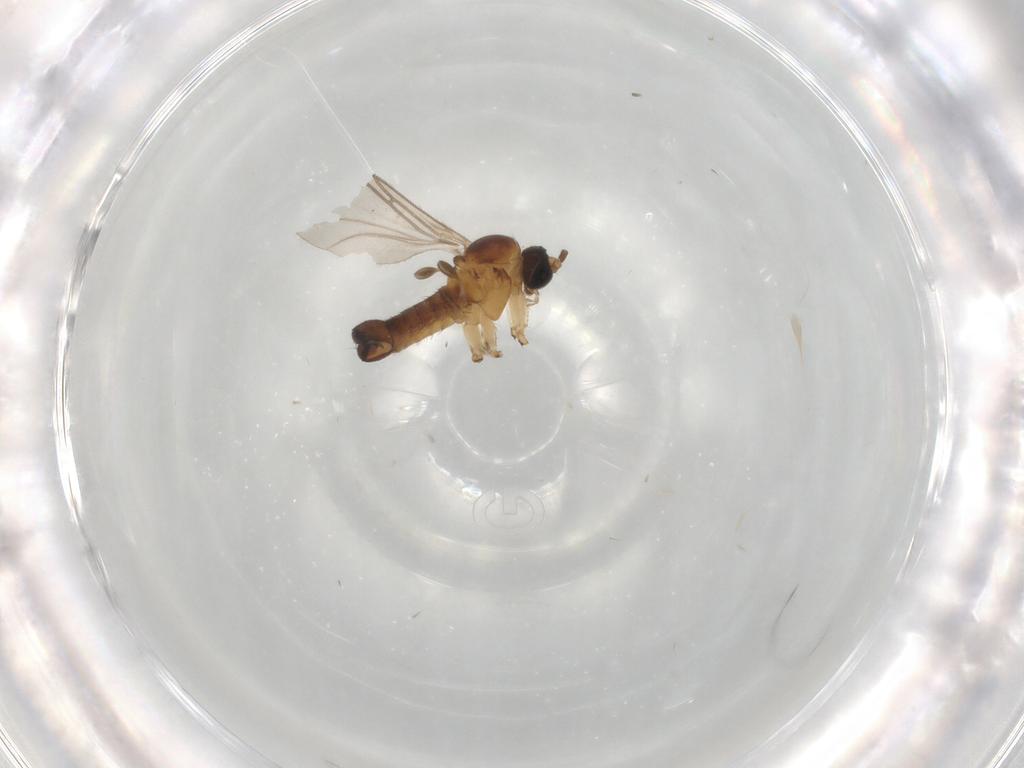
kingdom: Animalia
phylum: Arthropoda
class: Insecta
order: Diptera
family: Sciaridae
